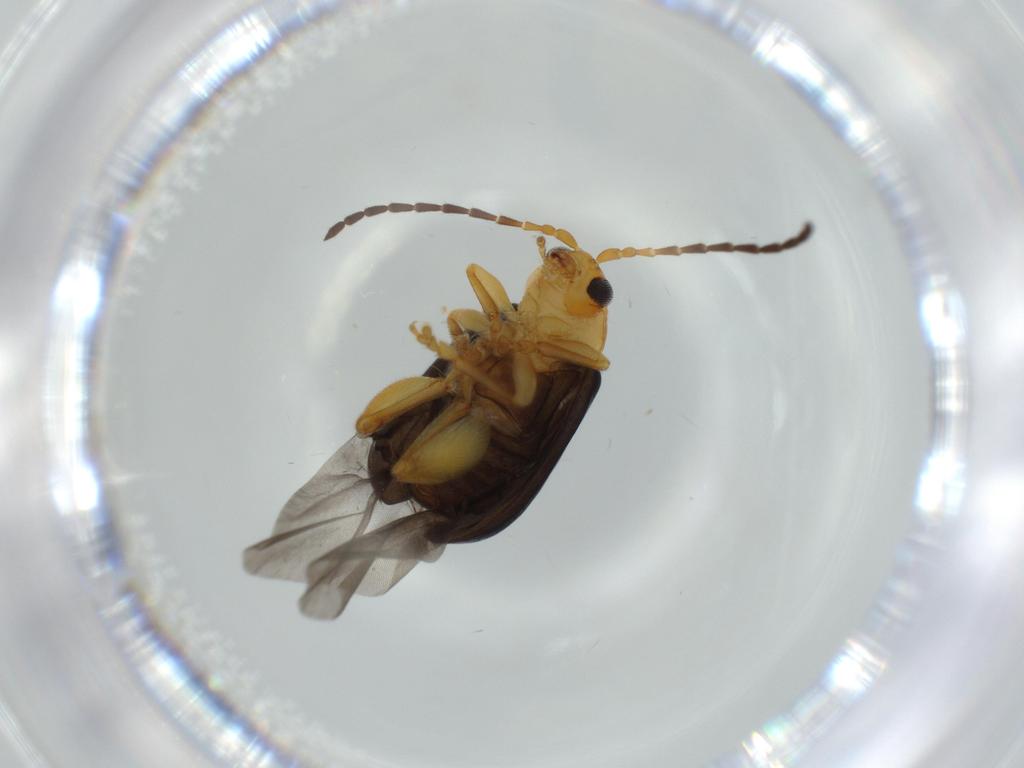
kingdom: Animalia
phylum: Arthropoda
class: Insecta
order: Coleoptera
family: Chrysomelidae
